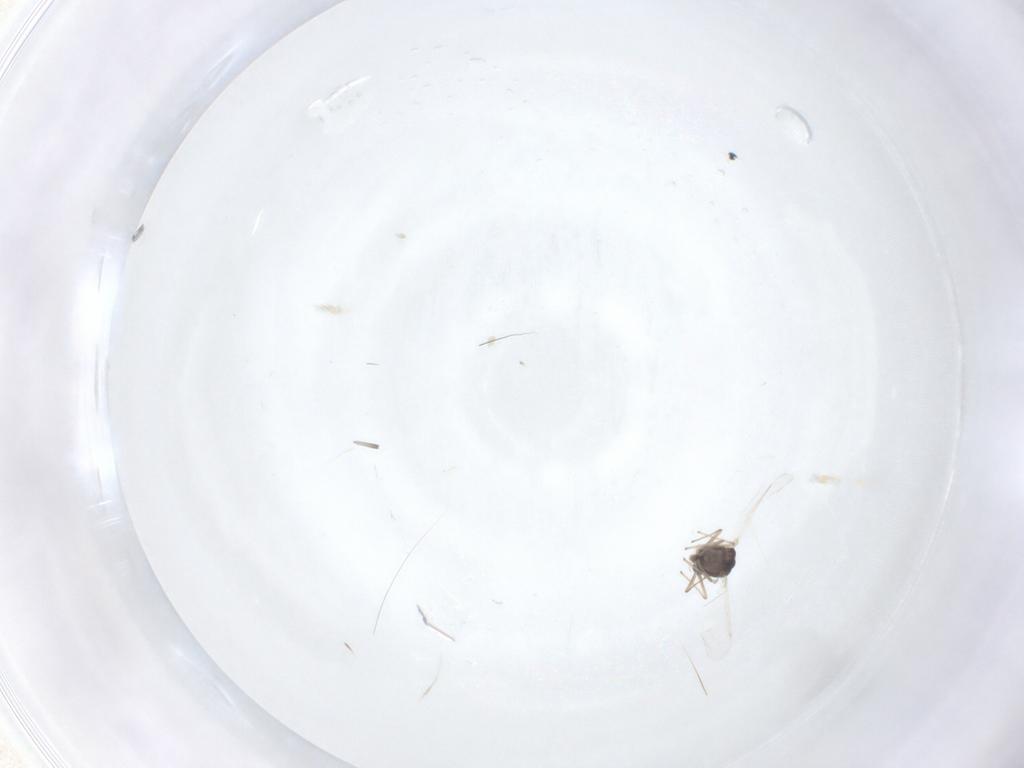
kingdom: Animalia
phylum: Arthropoda
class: Insecta
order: Diptera
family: Chironomidae
